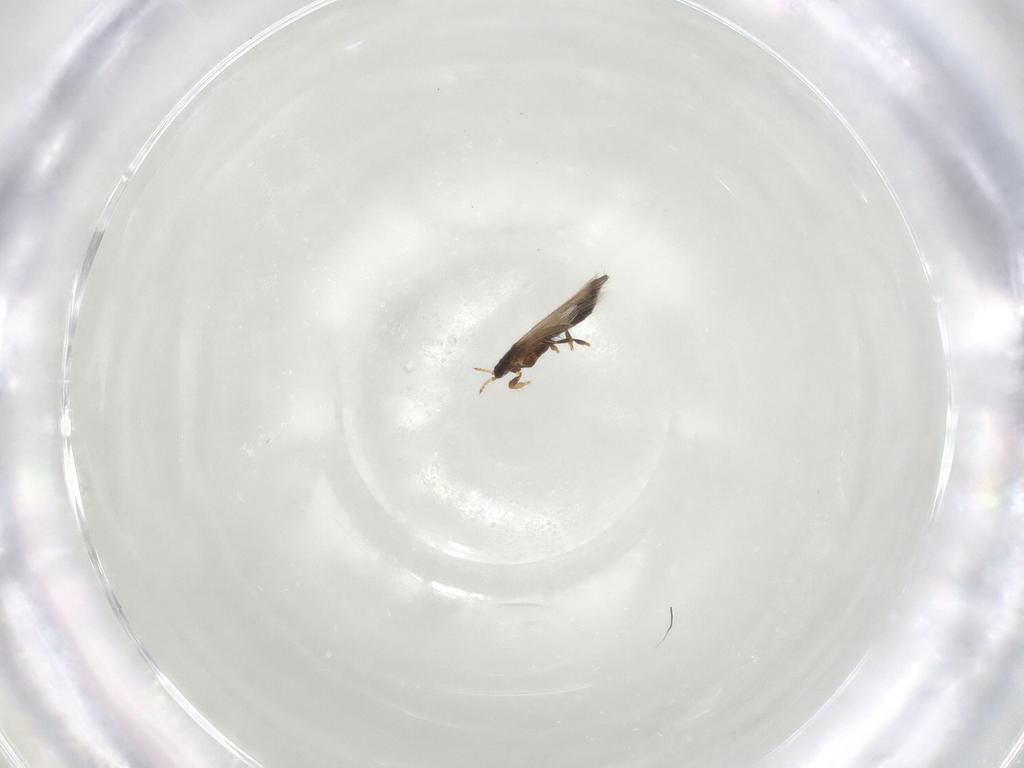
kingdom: Animalia
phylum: Arthropoda
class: Insecta
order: Thysanoptera
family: Thripidae
